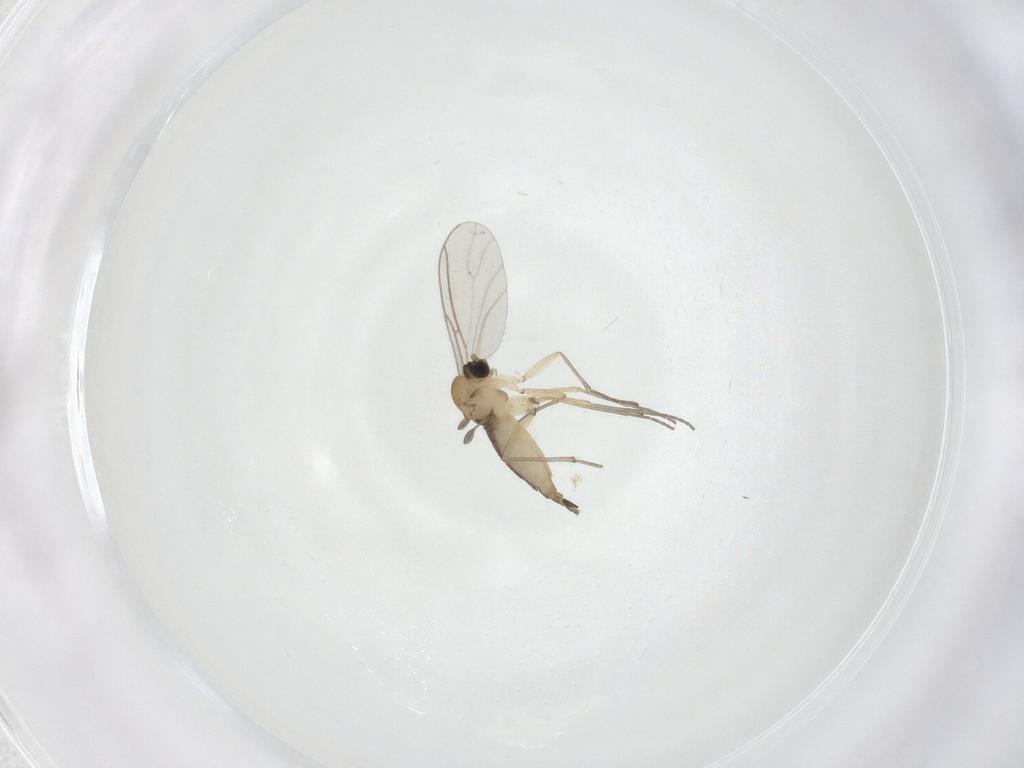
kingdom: Animalia
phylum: Arthropoda
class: Insecta
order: Diptera
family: Sciaridae
